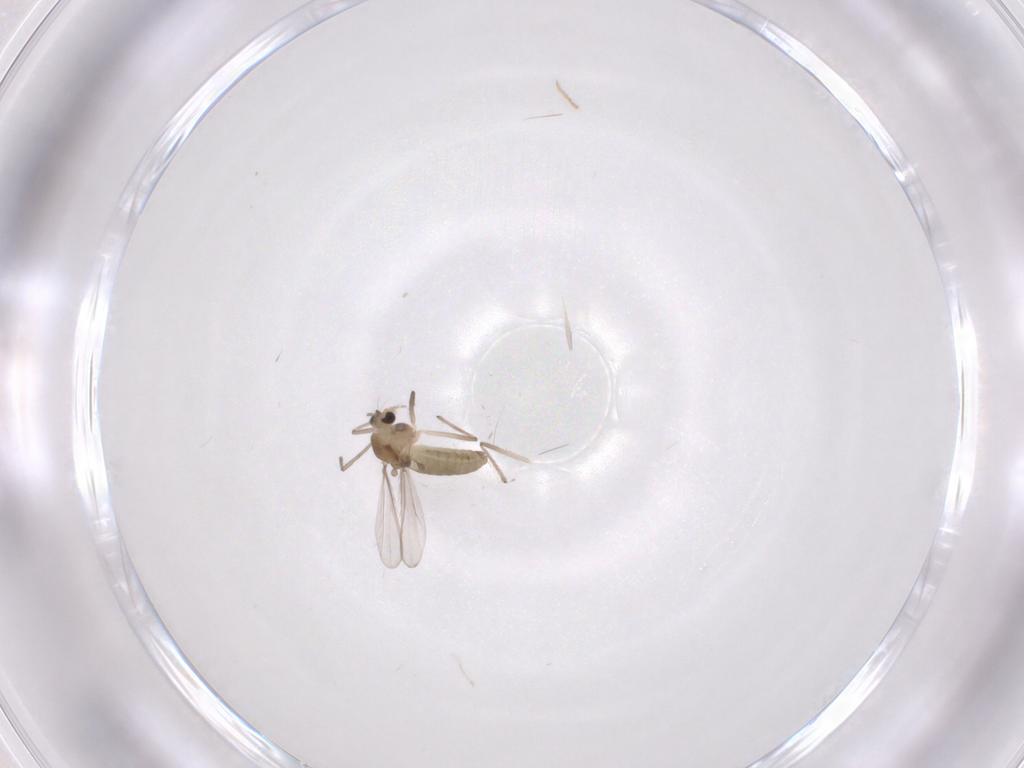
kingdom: Animalia
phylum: Arthropoda
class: Insecta
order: Diptera
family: Chironomidae
